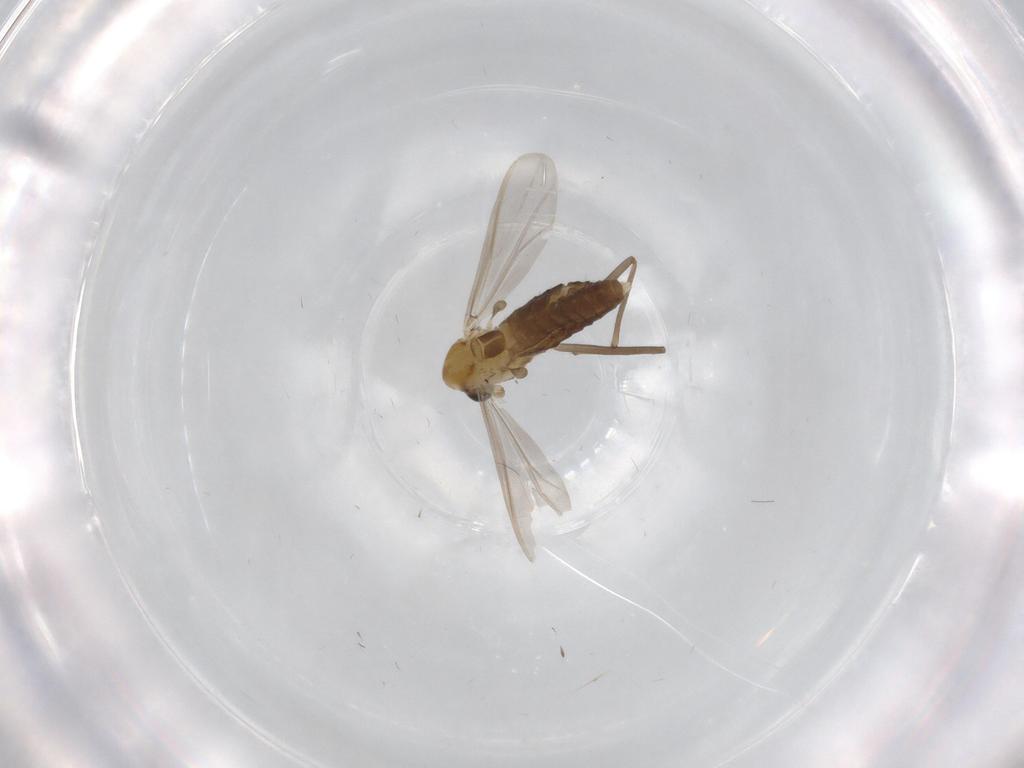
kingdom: Animalia
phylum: Arthropoda
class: Insecta
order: Diptera
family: Chironomidae
